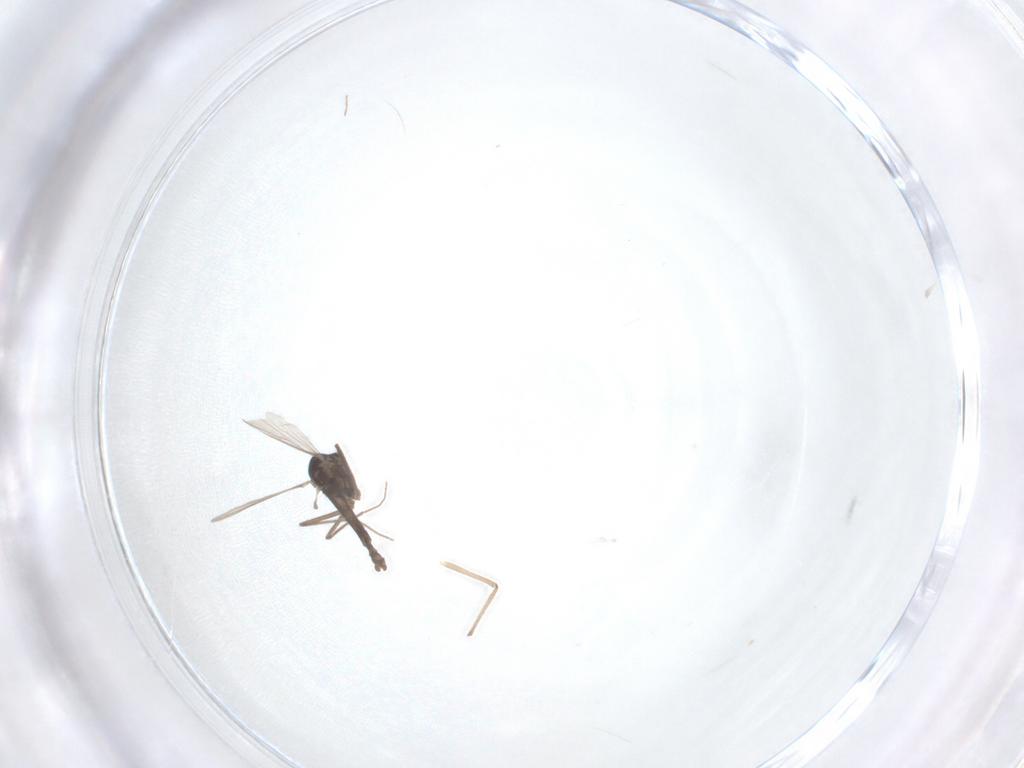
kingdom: Animalia
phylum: Arthropoda
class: Insecta
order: Diptera
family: Chironomidae
